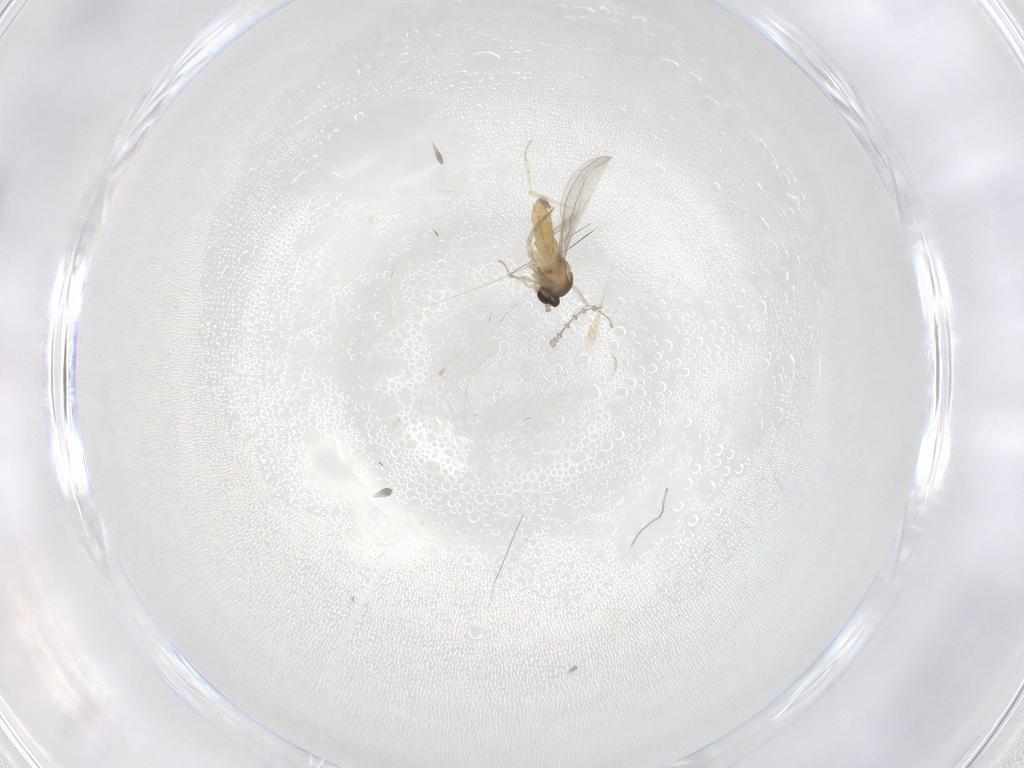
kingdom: Animalia
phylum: Arthropoda
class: Insecta
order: Diptera
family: Cecidomyiidae
